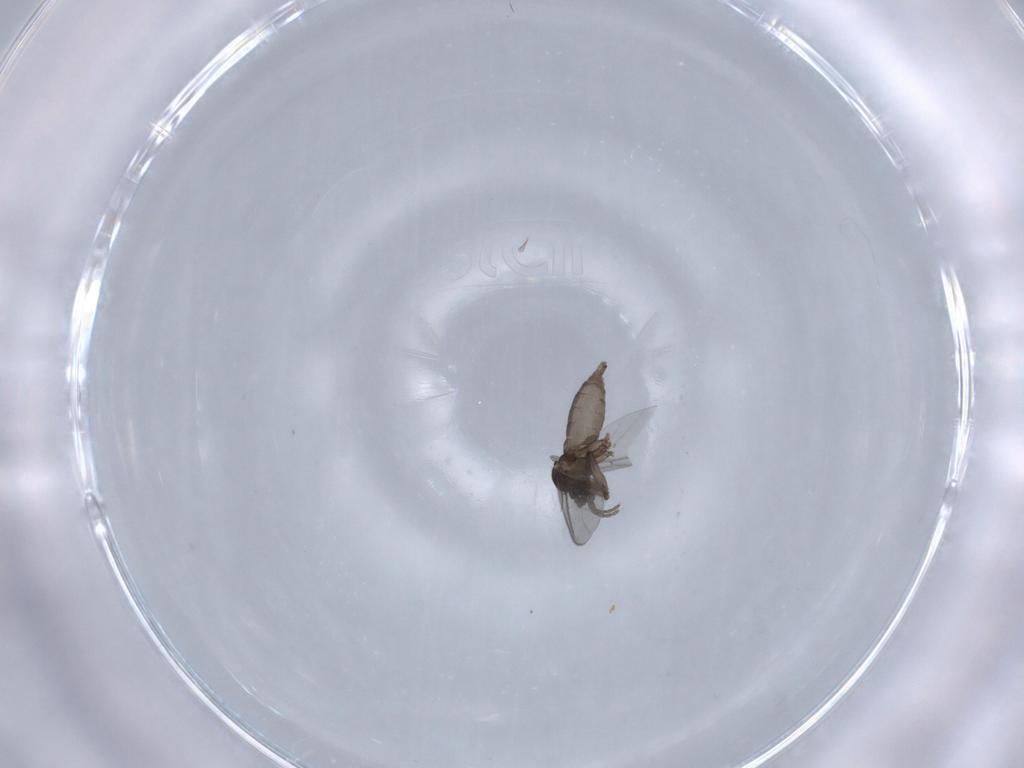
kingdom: Animalia
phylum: Arthropoda
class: Insecta
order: Diptera
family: Sciaridae
